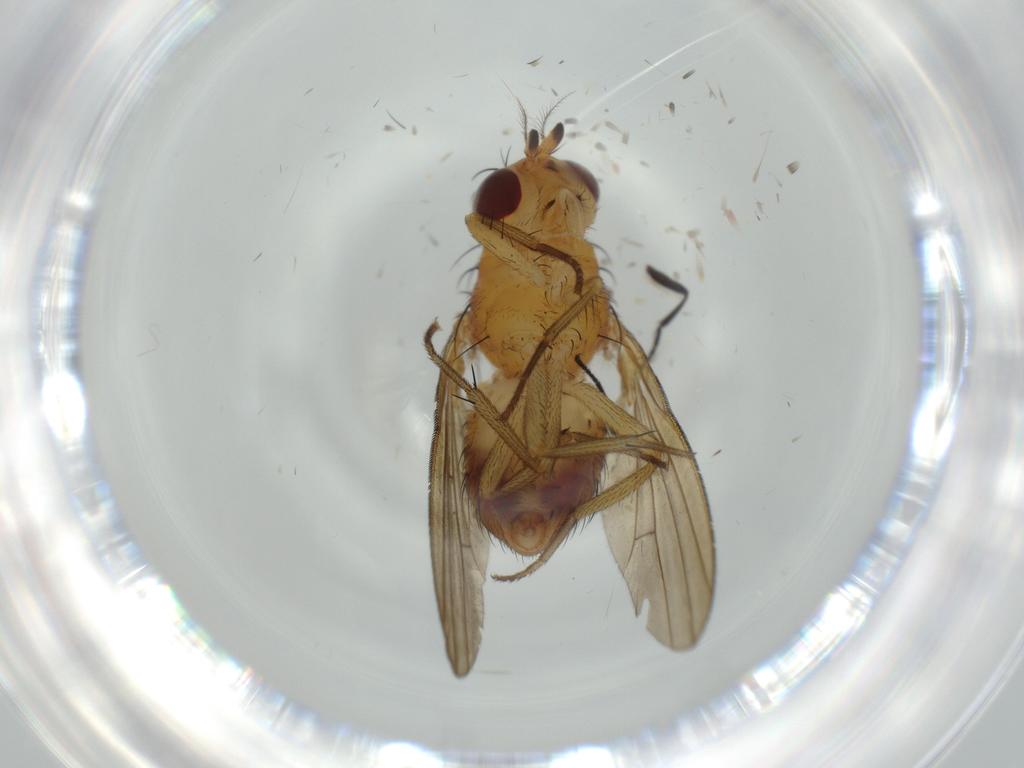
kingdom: Animalia
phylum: Arthropoda
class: Insecta
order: Diptera
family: Lauxaniidae
